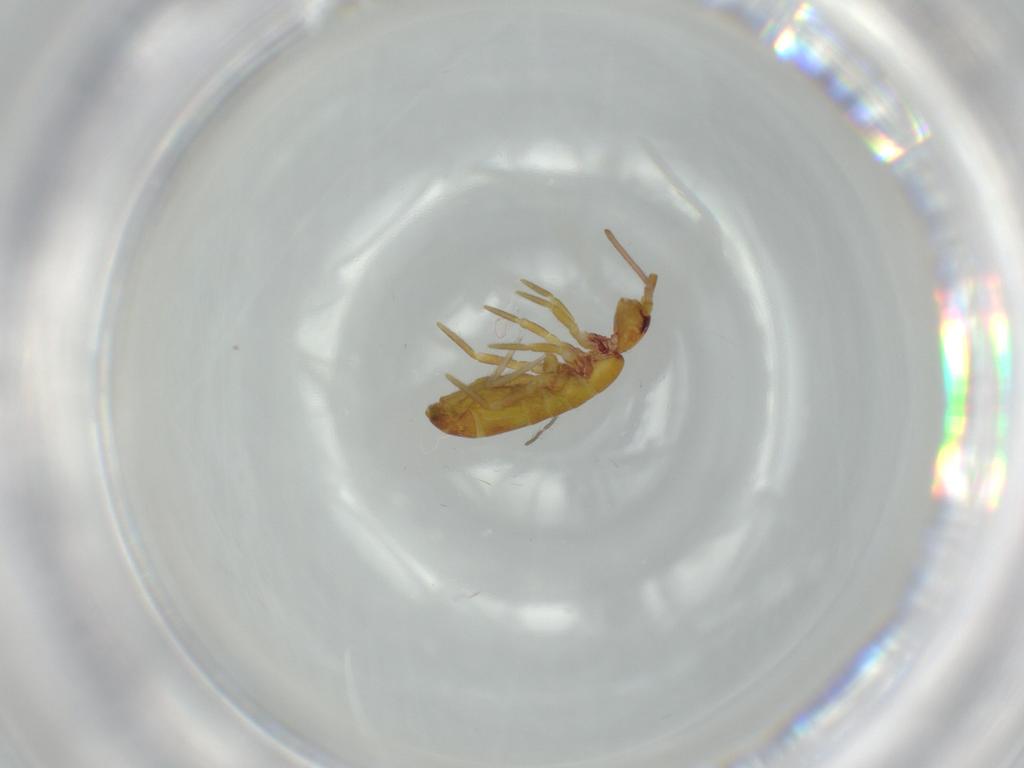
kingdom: Animalia
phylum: Arthropoda
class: Collembola
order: Entomobryomorpha
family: Tomoceridae
